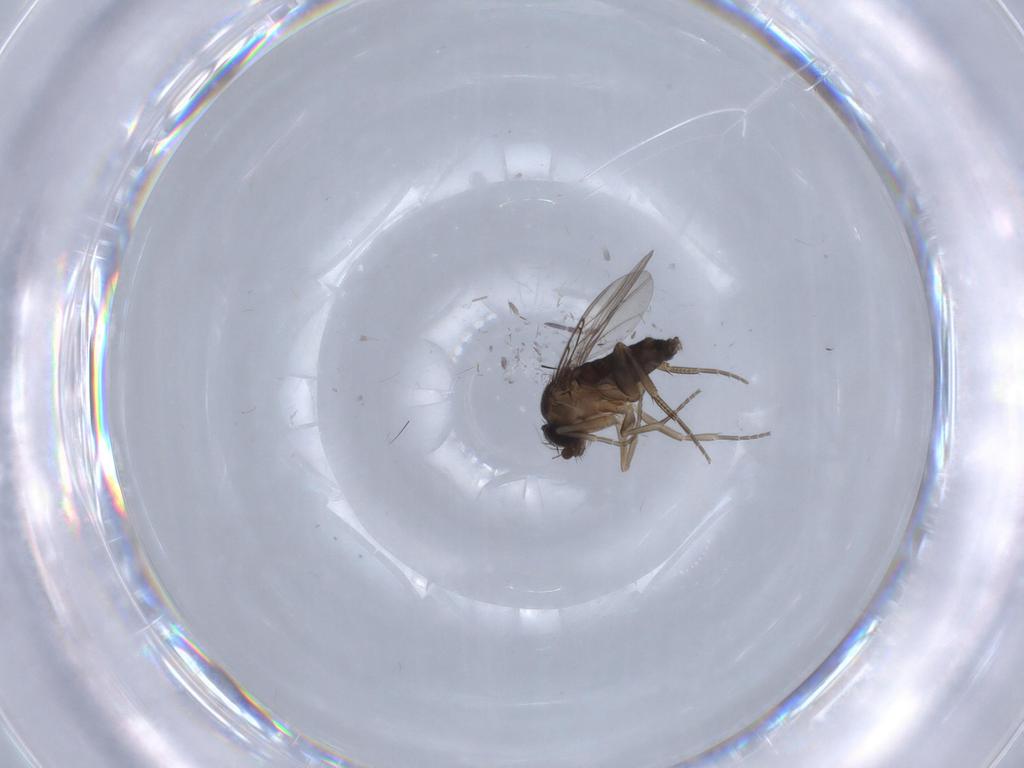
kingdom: Animalia
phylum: Arthropoda
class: Insecta
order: Diptera
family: Phoridae
